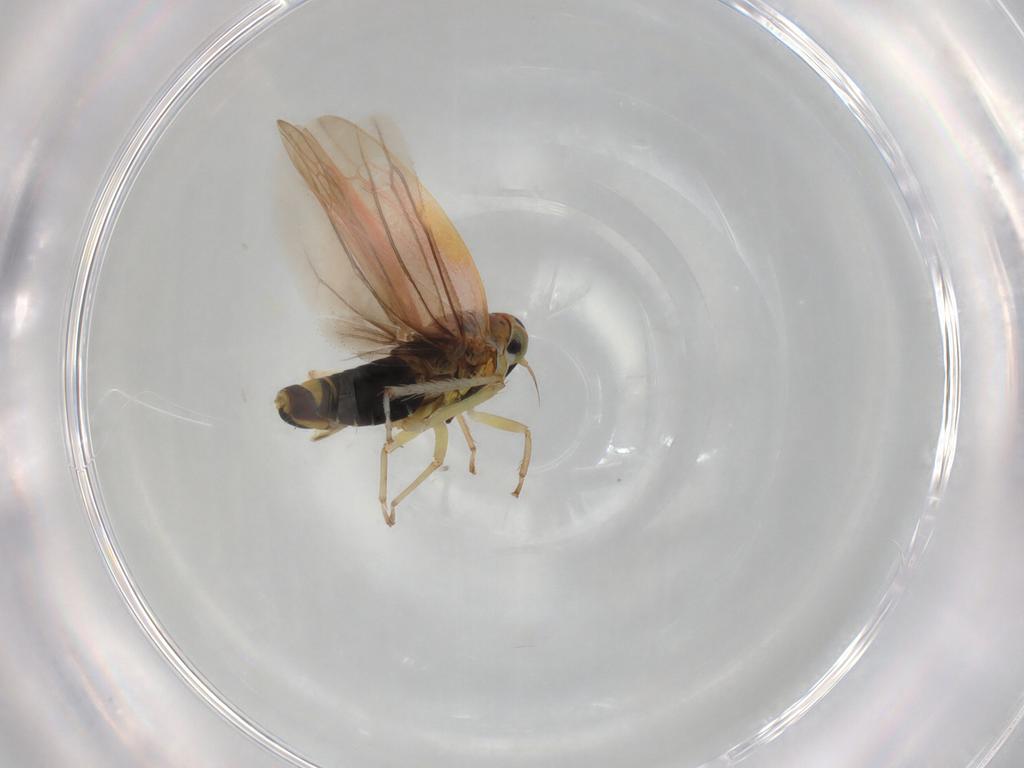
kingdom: Animalia
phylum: Arthropoda
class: Insecta
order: Hemiptera
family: Cicadellidae
